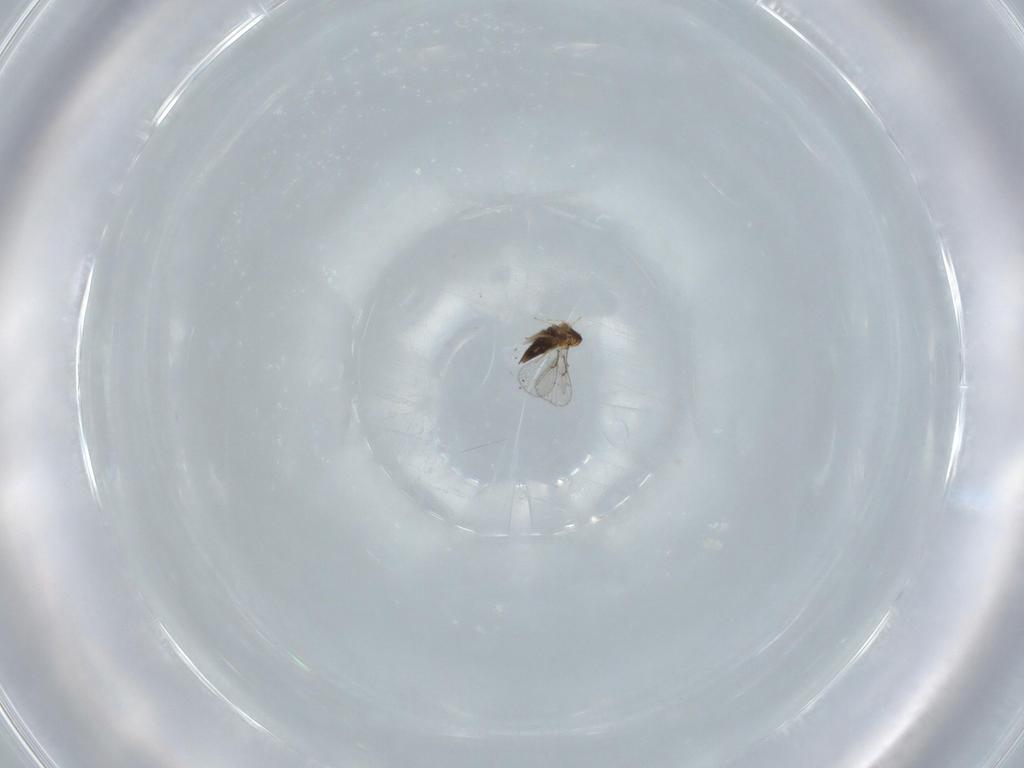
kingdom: Animalia
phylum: Arthropoda
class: Insecta
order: Hymenoptera
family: Trichogrammatidae
